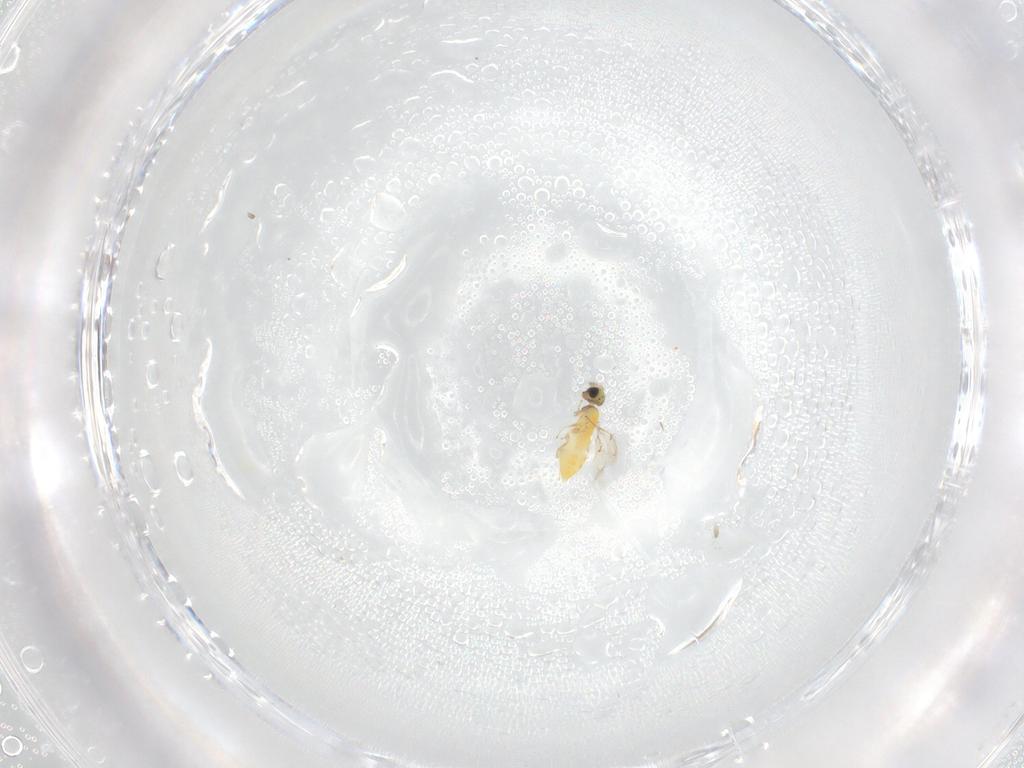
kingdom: Animalia
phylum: Arthropoda
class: Insecta
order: Hymenoptera
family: Trichogrammatidae
